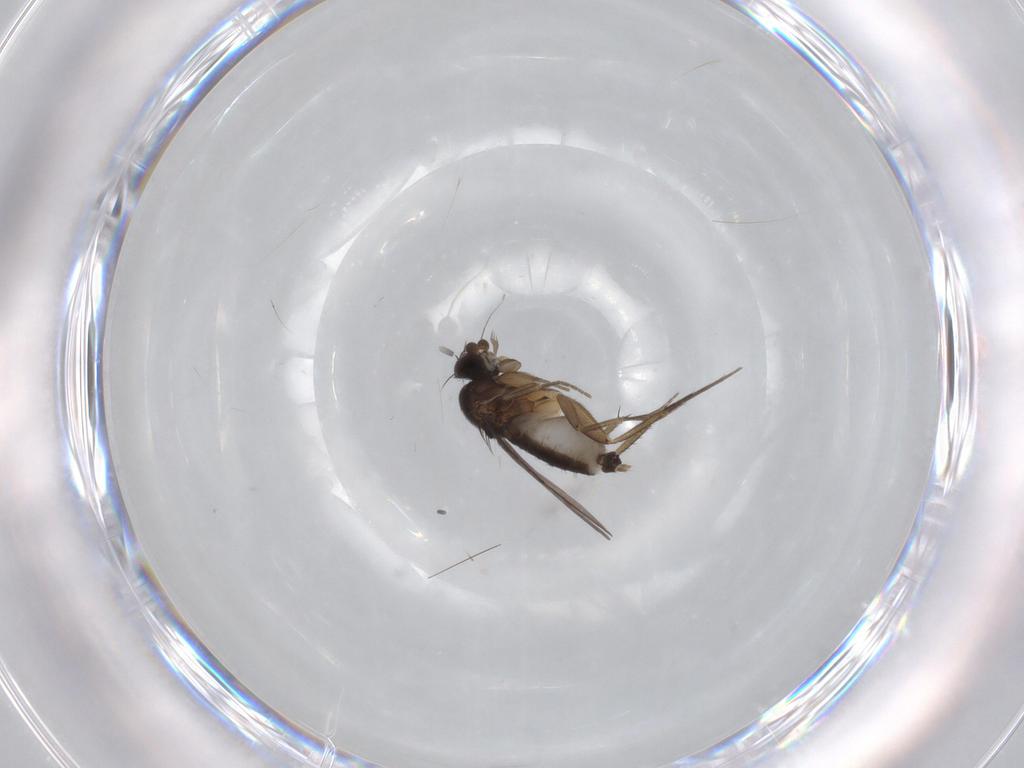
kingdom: Animalia
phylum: Arthropoda
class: Insecta
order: Diptera
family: Phoridae
